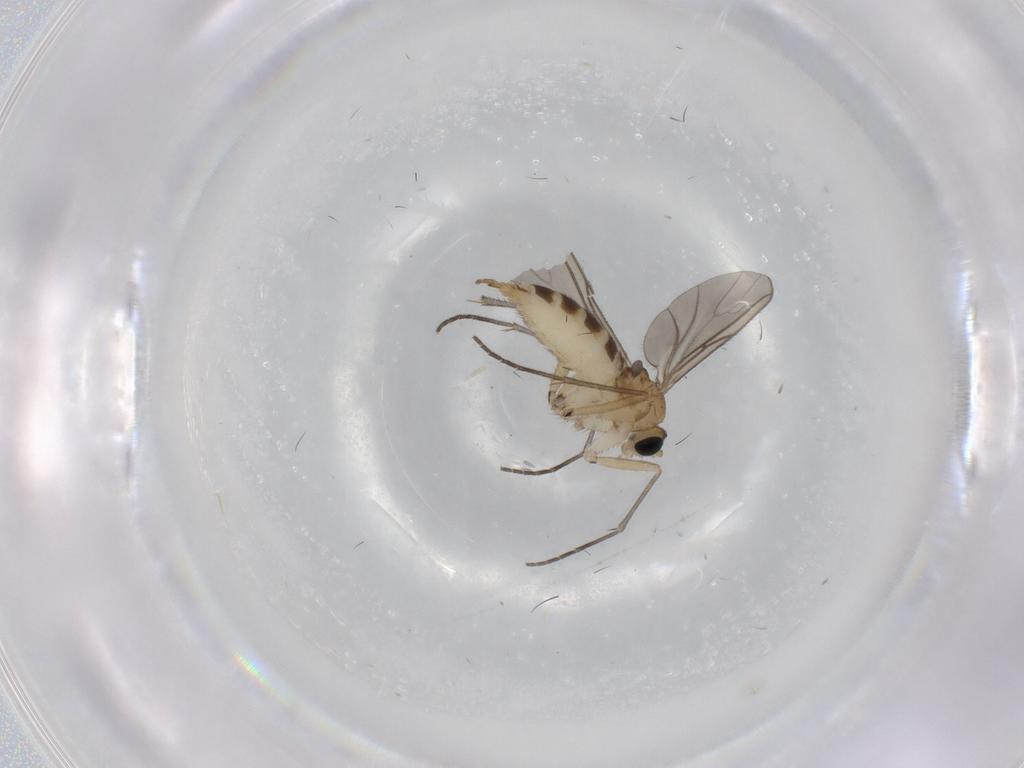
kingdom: Animalia
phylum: Arthropoda
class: Insecta
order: Diptera
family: Sciaridae
